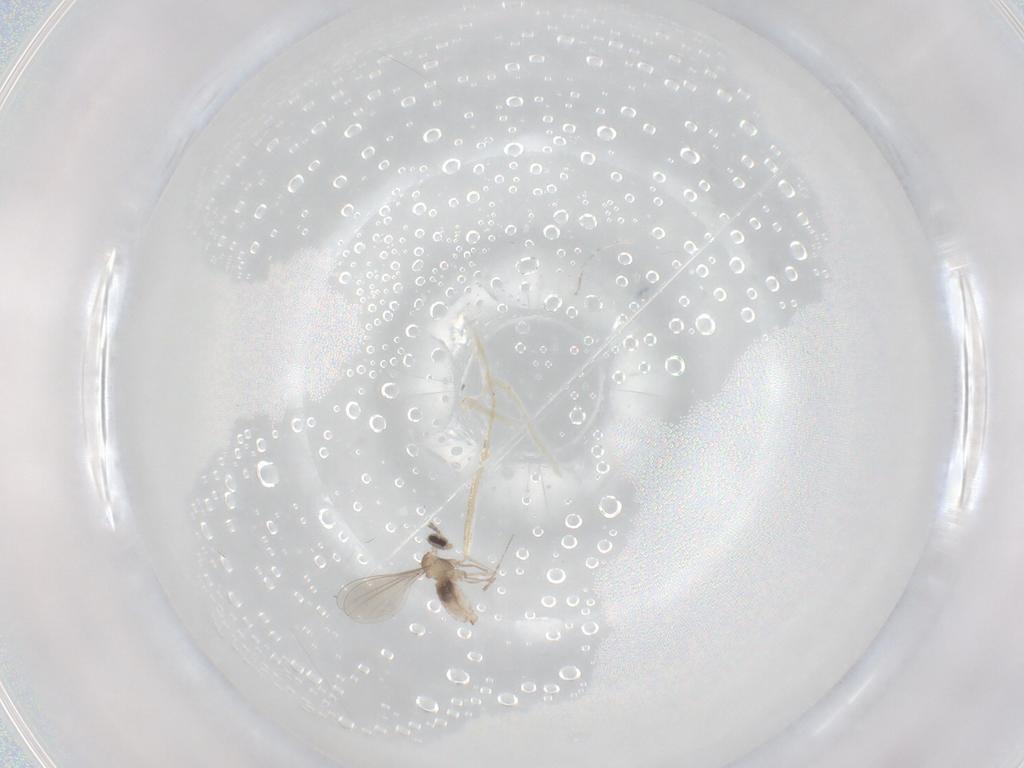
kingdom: Animalia
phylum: Arthropoda
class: Insecta
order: Diptera
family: Cecidomyiidae
